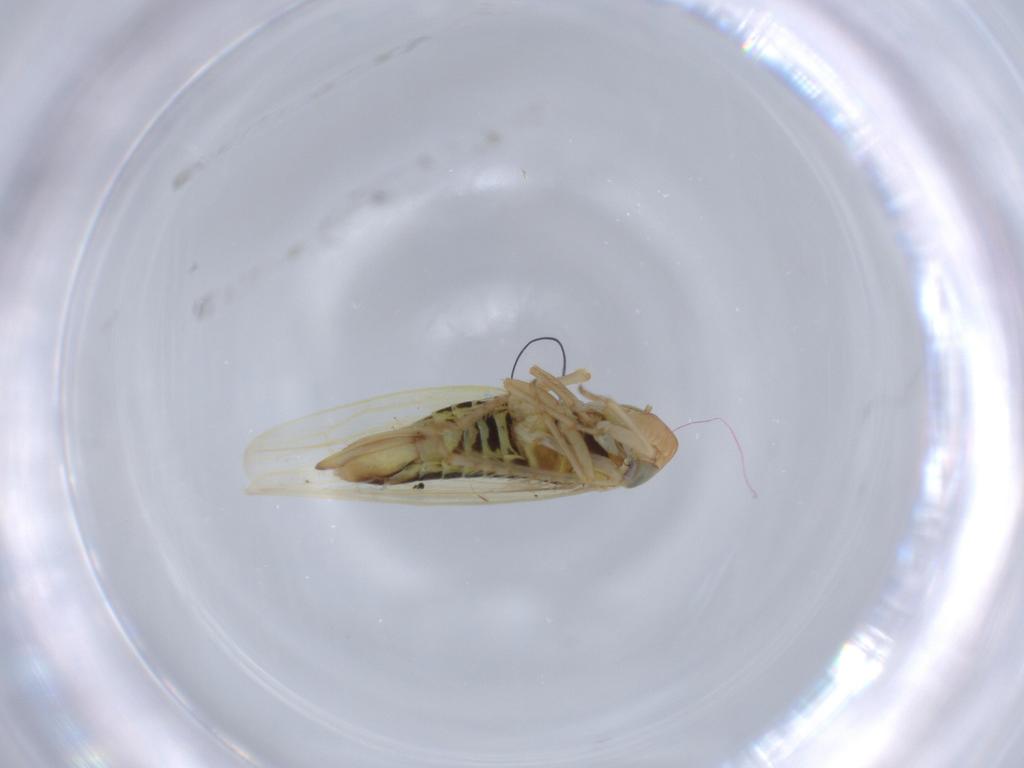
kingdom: Animalia
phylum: Arthropoda
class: Insecta
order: Hemiptera
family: Cicadellidae
